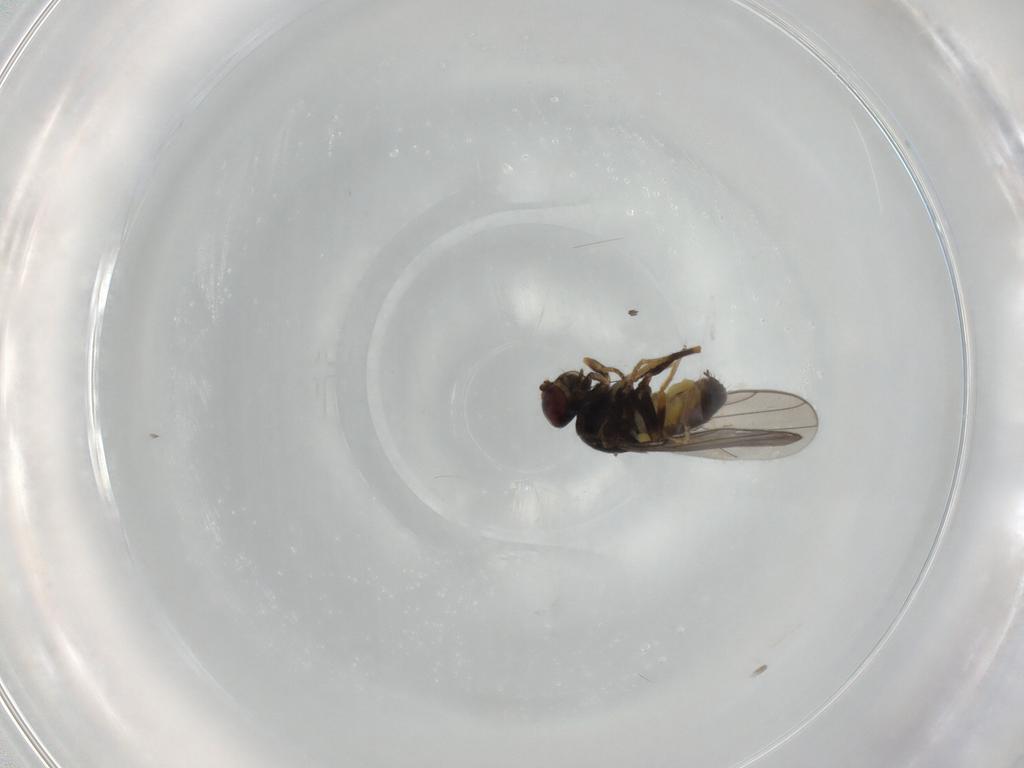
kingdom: Animalia
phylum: Arthropoda
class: Insecta
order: Diptera
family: Chloropidae
